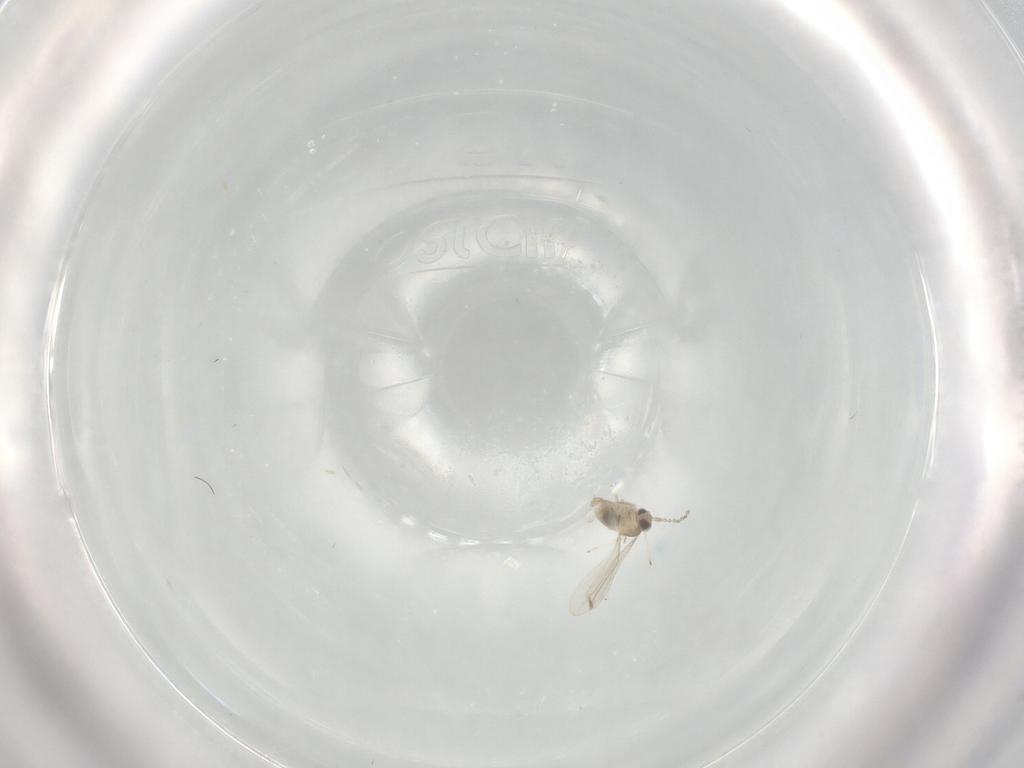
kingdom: Animalia
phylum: Arthropoda
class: Insecta
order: Diptera
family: Cecidomyiidae
